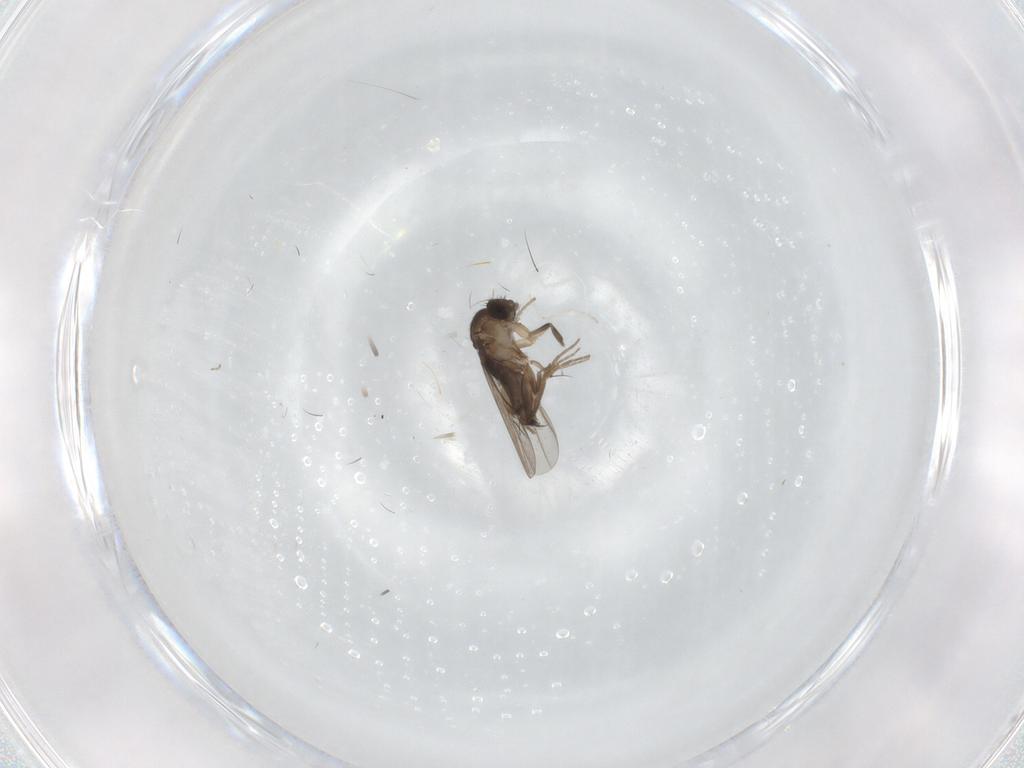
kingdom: Animalia
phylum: Arthropoda
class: Insecta
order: Diptera
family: Phoridae
